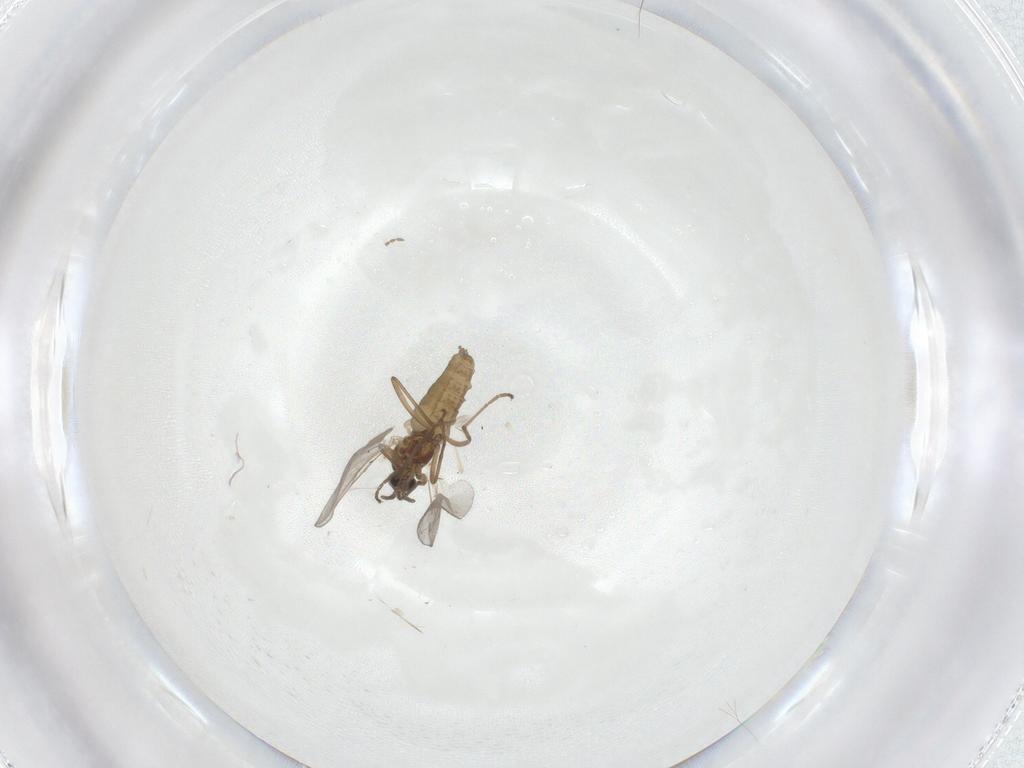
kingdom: Animalia
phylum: Arthropoda
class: Insecta
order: Diptera
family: Cecidomyiidae
